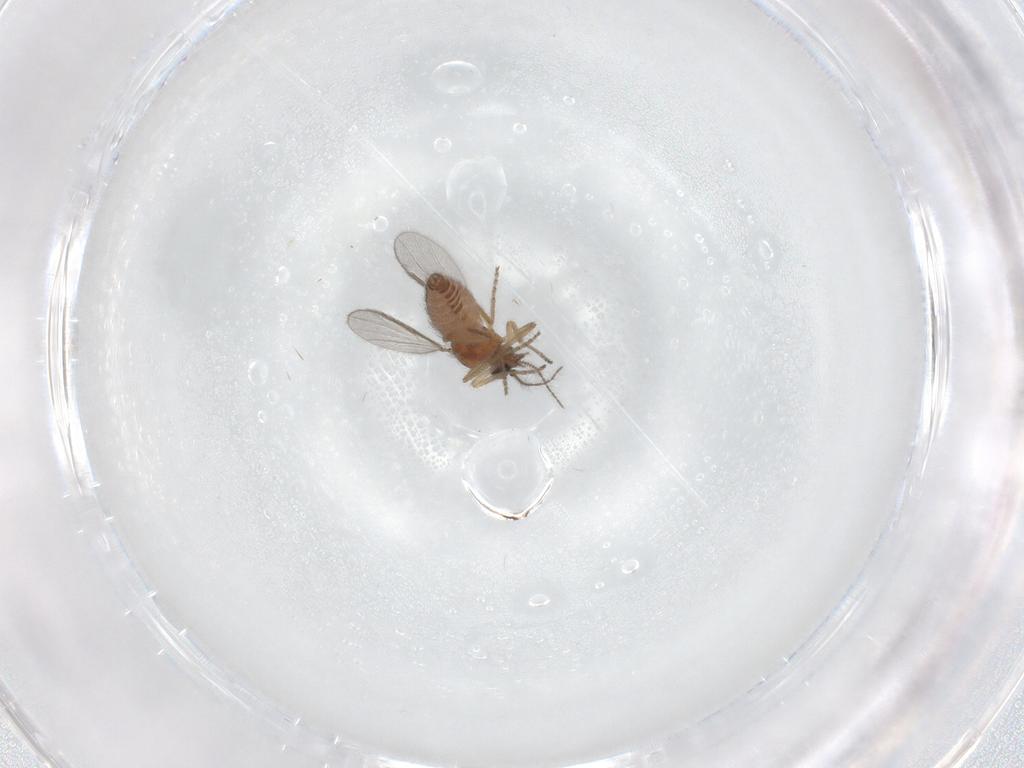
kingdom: Animalia
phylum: Arthropoda
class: Insecta
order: Diptera
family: Ceratopogonidae
